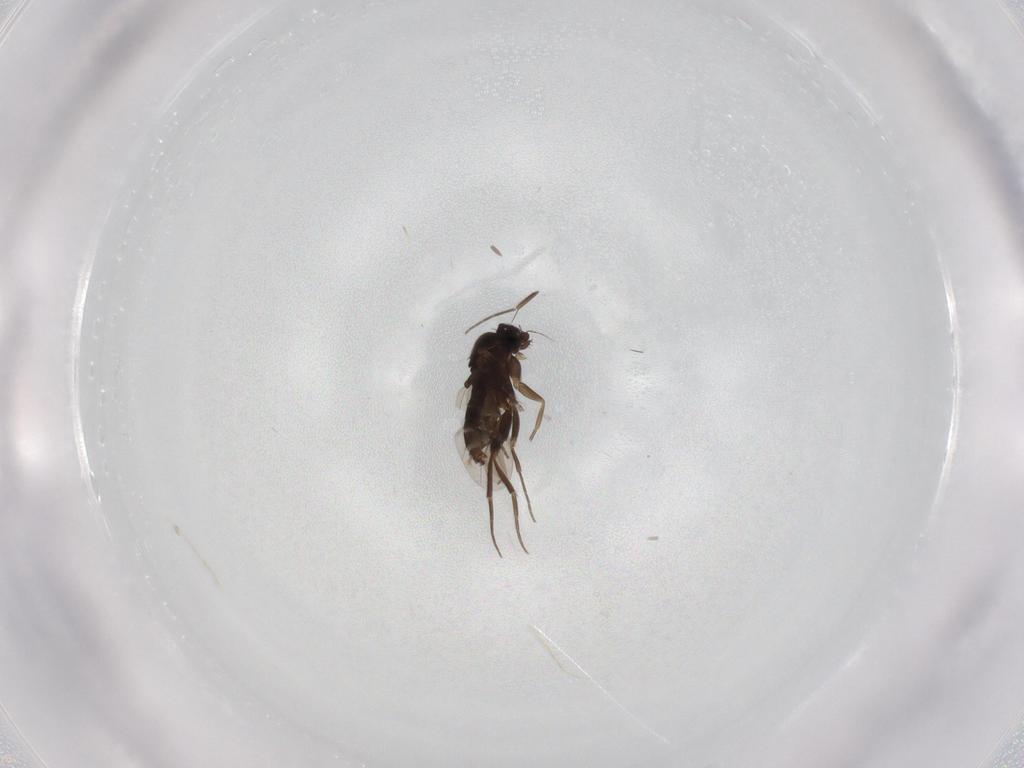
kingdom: Animalia
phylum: Arthropoda
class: Insecta
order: Diptera
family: Phoridae
